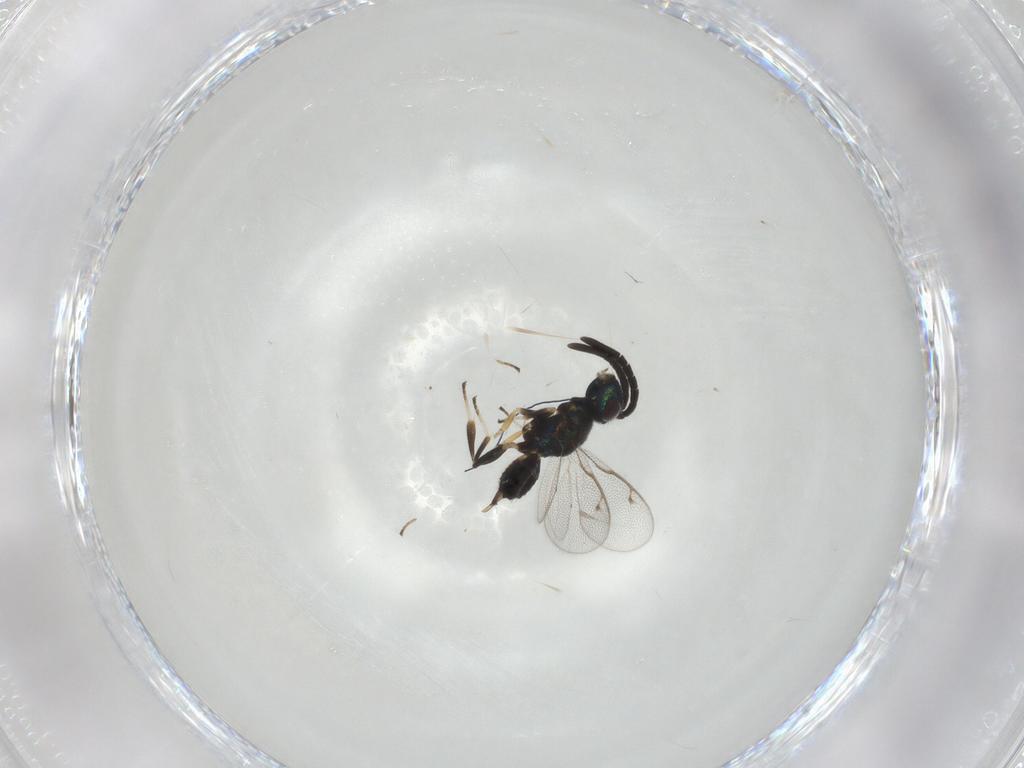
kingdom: Animalia
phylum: Arthropoda
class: Insecta
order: Hymenoptera
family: Eupelmidae
